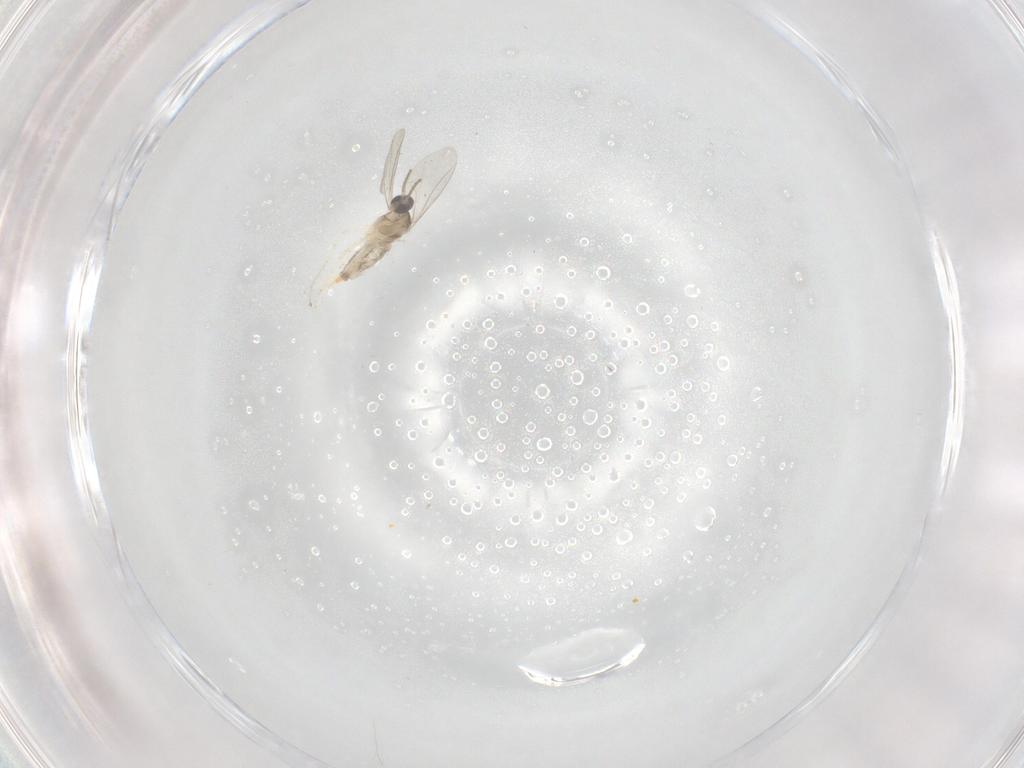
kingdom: Animalia
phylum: Arthropoda
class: Insecta
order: Diptera
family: Cecidomyiidae
